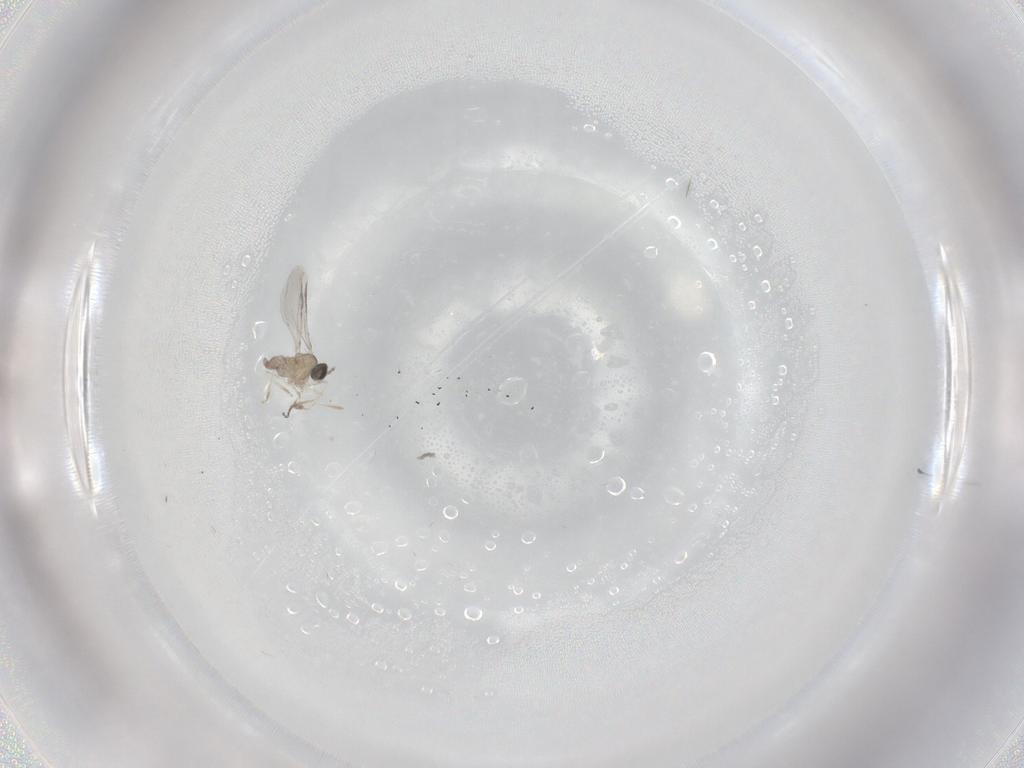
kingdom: Animalia
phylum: Arthropoda
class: Insecta
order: Diptera
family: Cecidomyiidae
